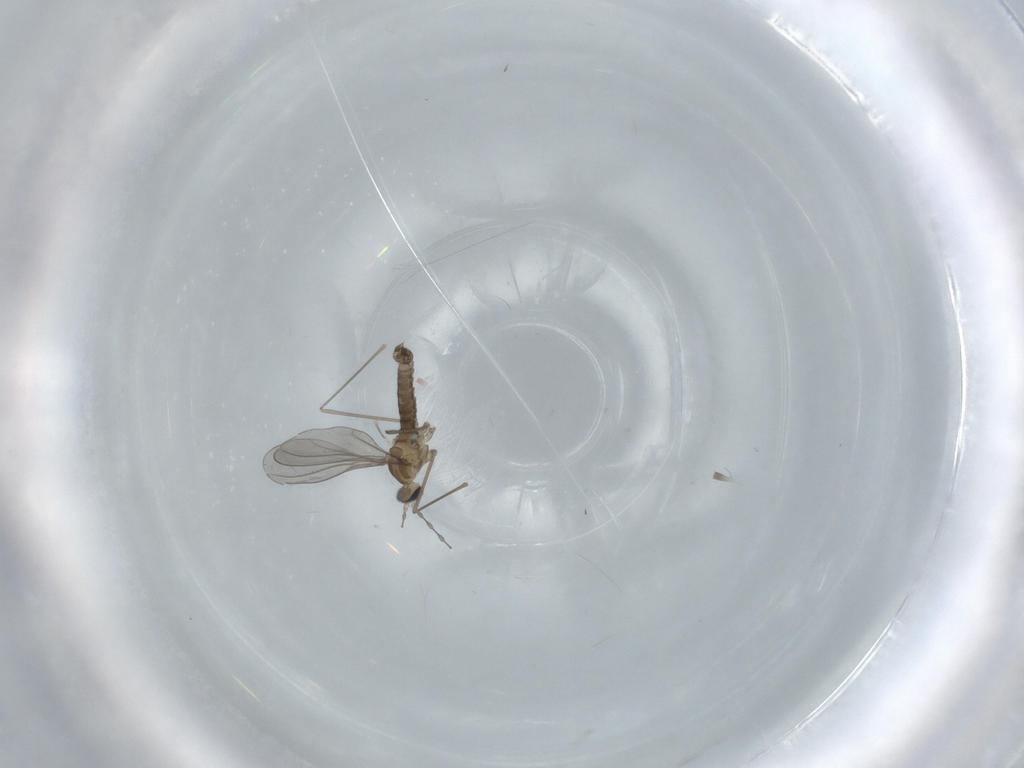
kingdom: Animalia
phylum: Arthropoda
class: Insecta
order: Diptera
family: Cecidomyiidae
